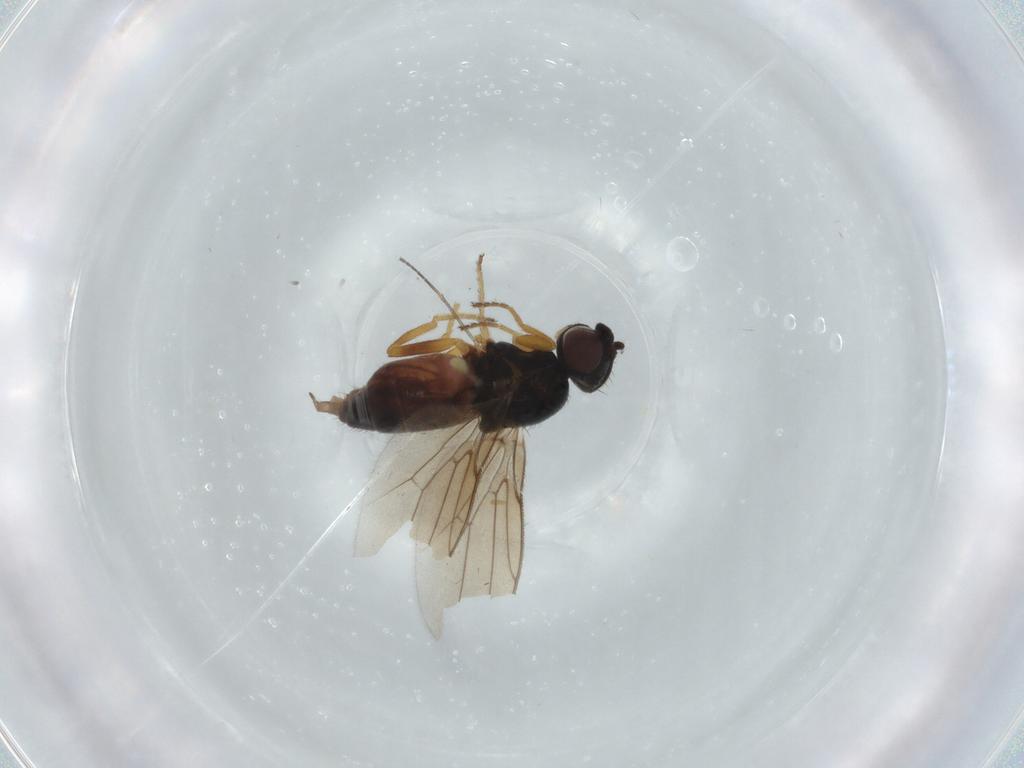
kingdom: Animalia
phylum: Arthropoda
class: Insecta
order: Diptera
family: Chloropidae
